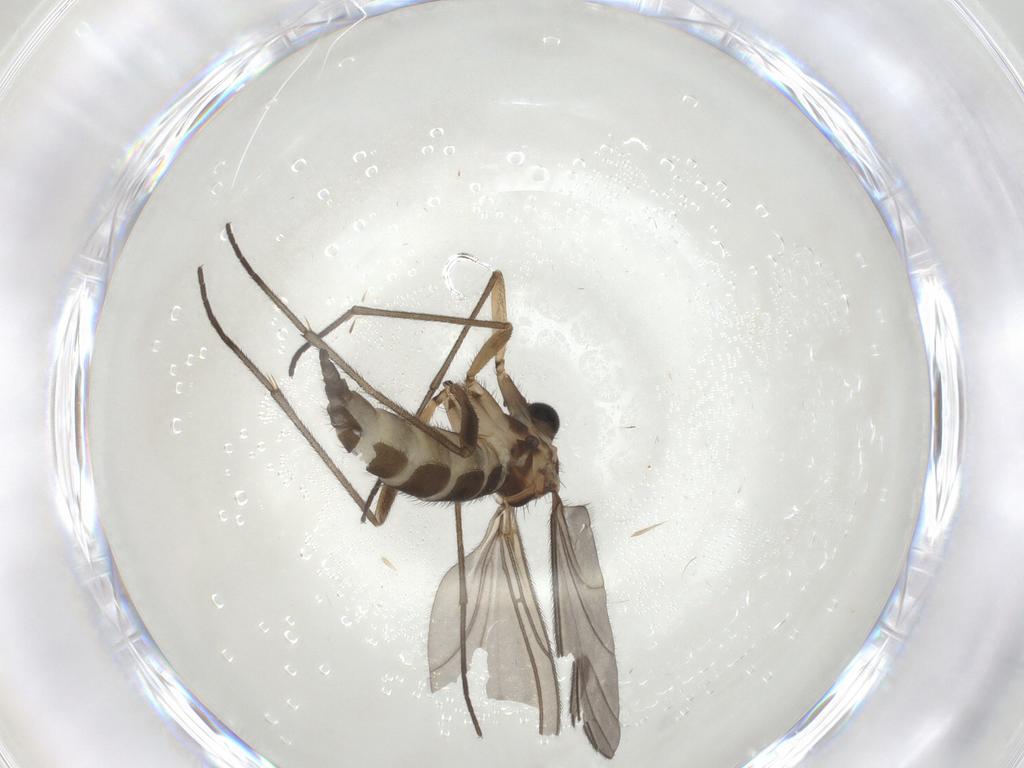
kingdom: Animalia
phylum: Arthropoda
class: Insecta
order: Diptera
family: Sciaridae
